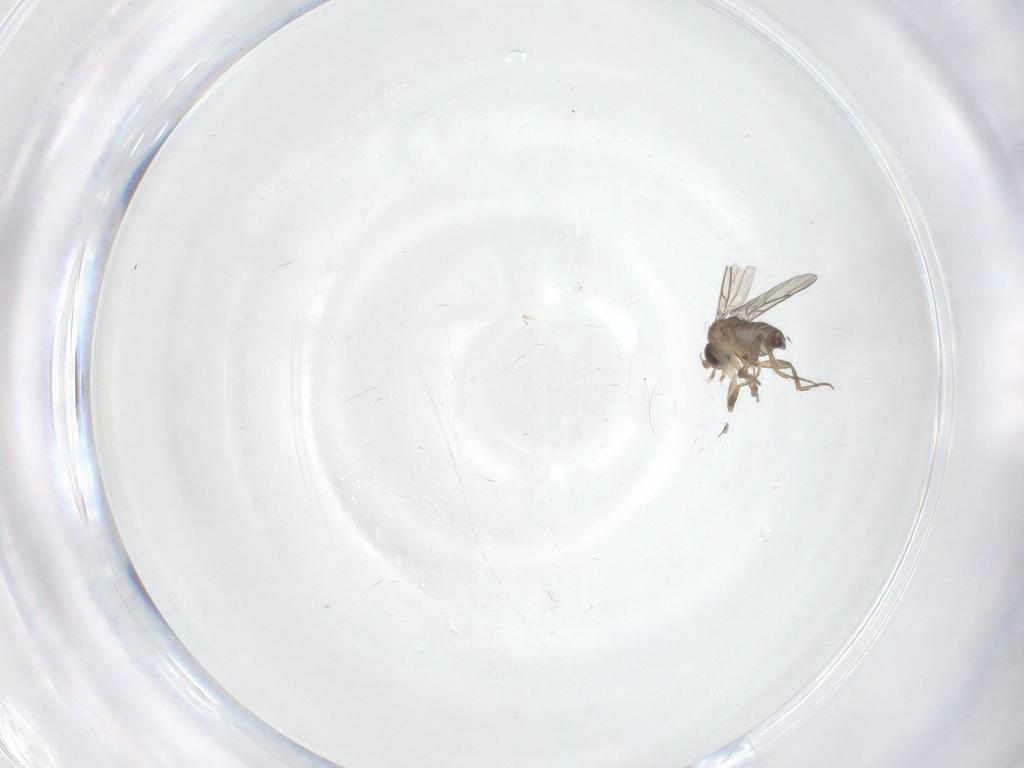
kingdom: Animalia
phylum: Arthropoda
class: Insecta
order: Diptera
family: Phoridae
